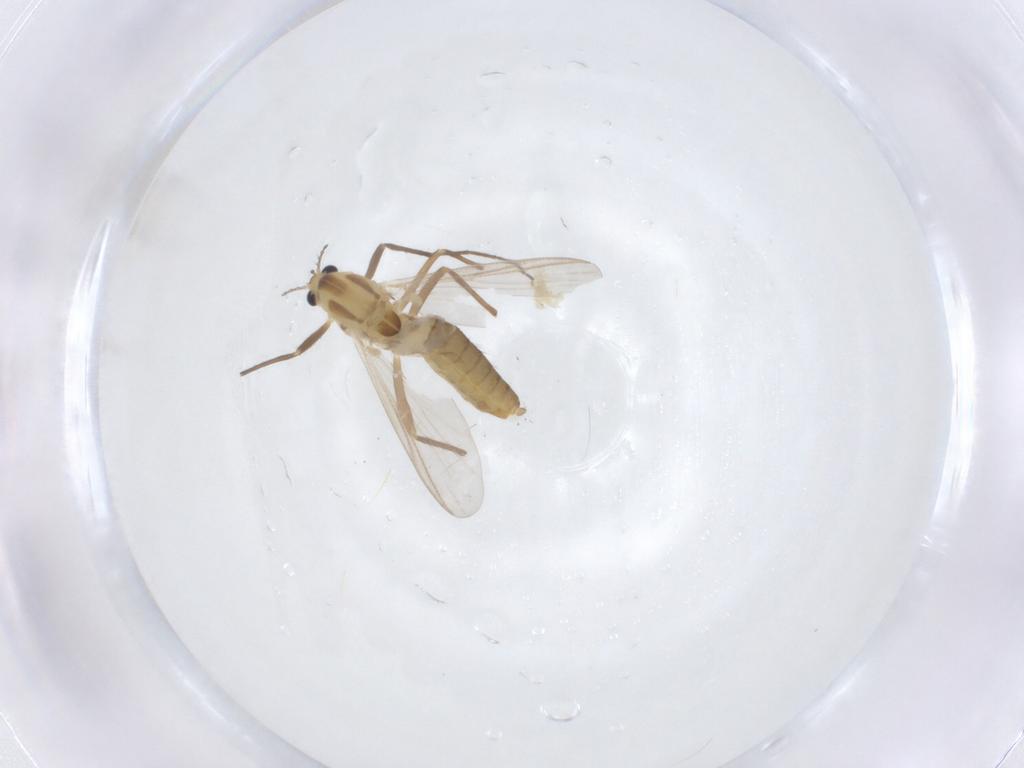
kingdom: Animalia
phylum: Arthropoda
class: Insecta
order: Diptera
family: Chironomidae
